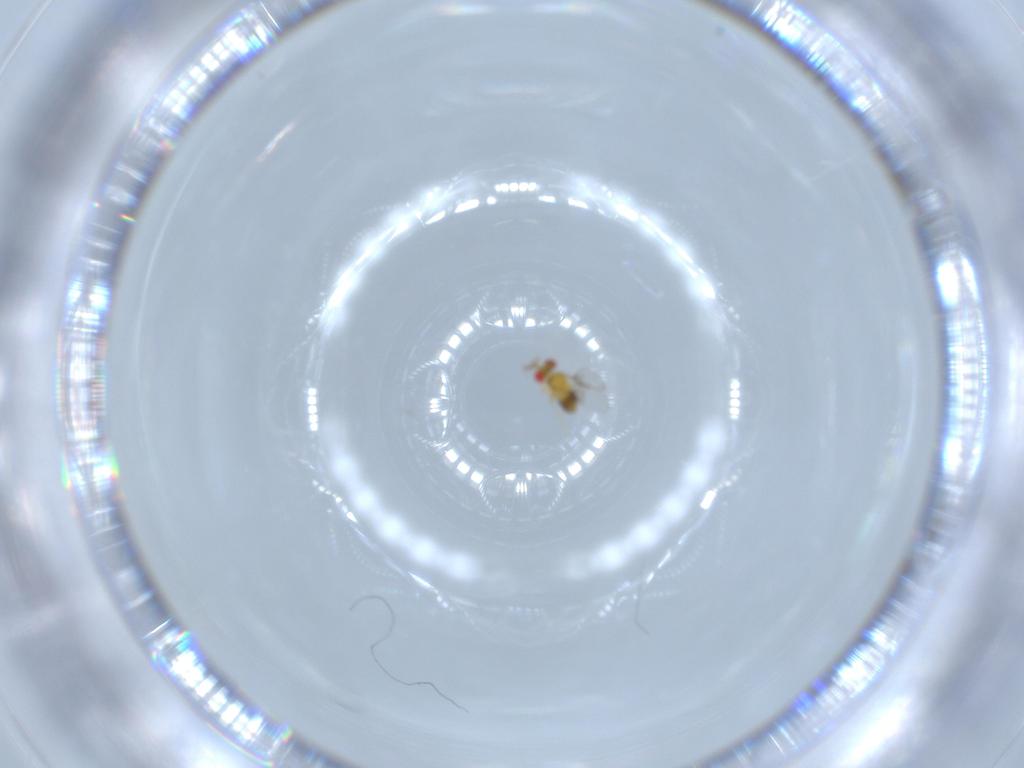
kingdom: Animalia
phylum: Arthropoda
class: Insecta
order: Hymenoptera
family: Trichogrammatidae
